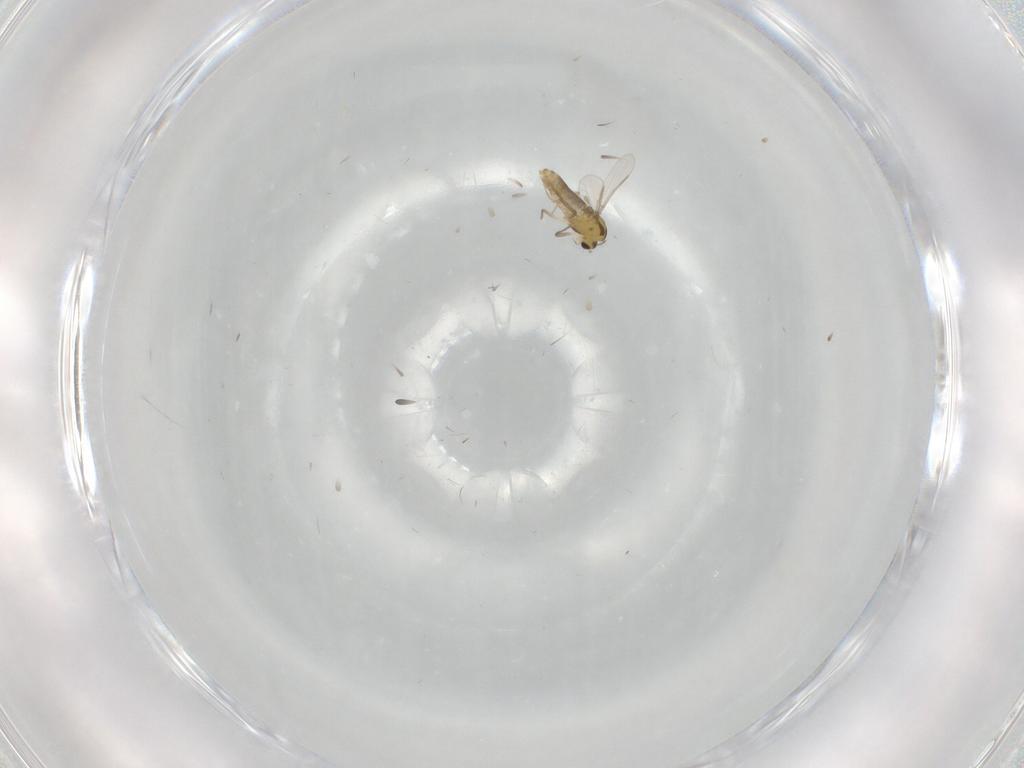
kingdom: Animalia
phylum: Arthropoda
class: Insecta
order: Diptera
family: Chironomidae
